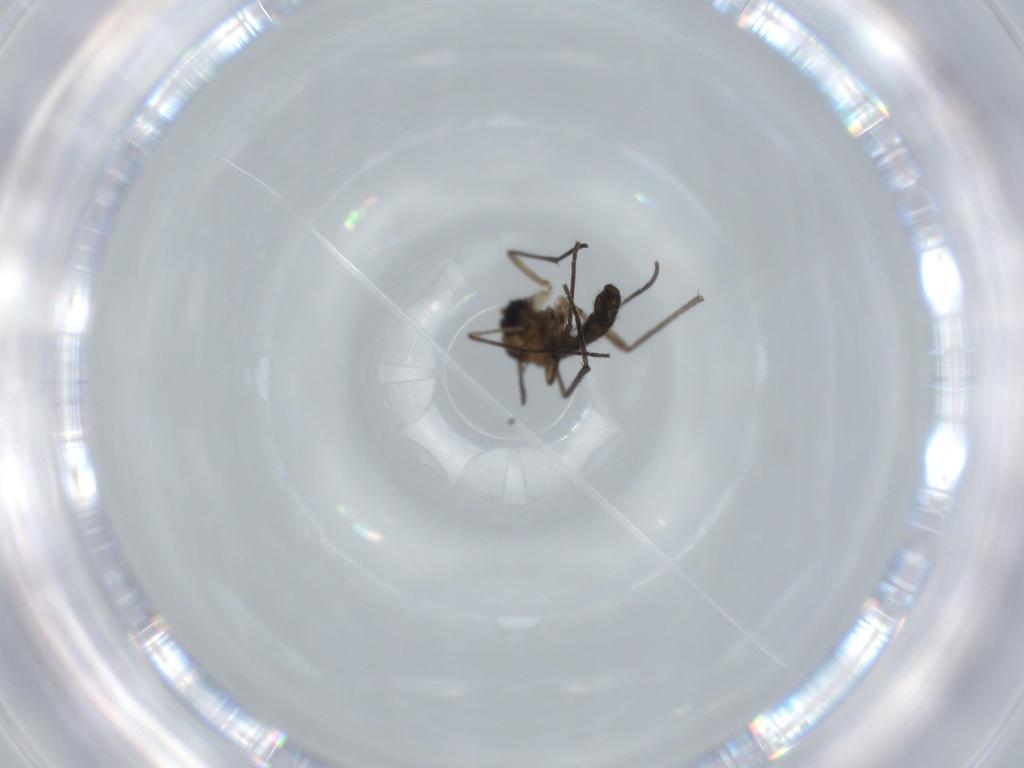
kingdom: Animalia
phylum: Arthropoda
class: Insecta
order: Diptera
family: Sciaridae
